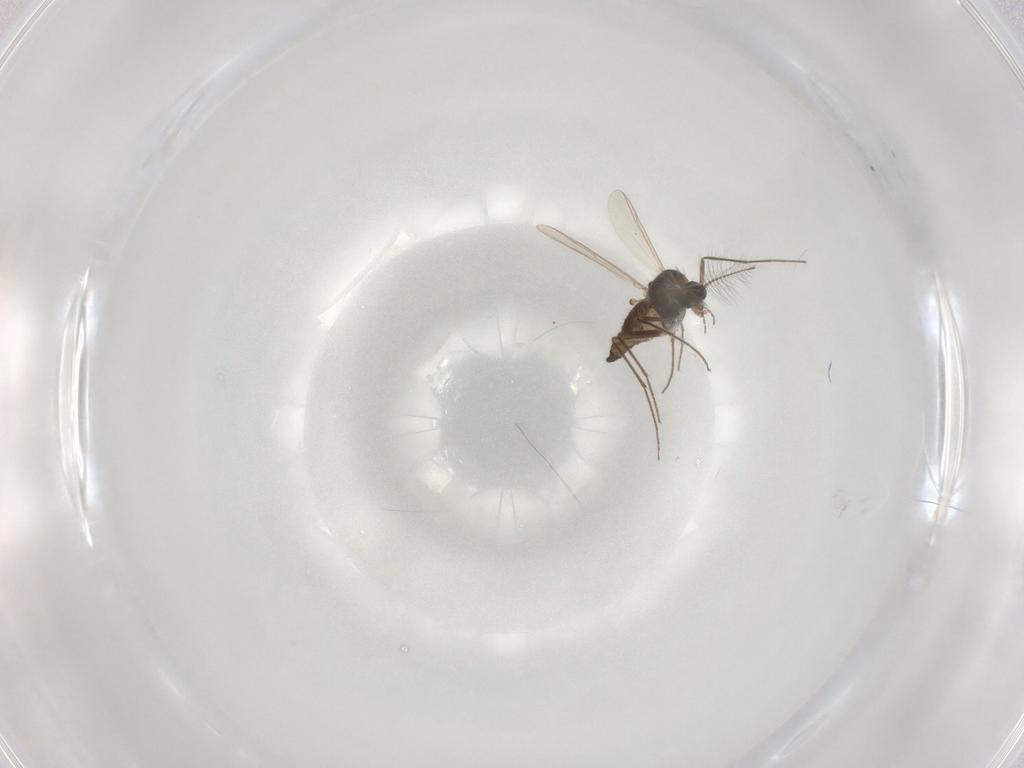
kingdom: Animalia
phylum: Arthropoda
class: Insecta
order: Diptera
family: Chironomidae
